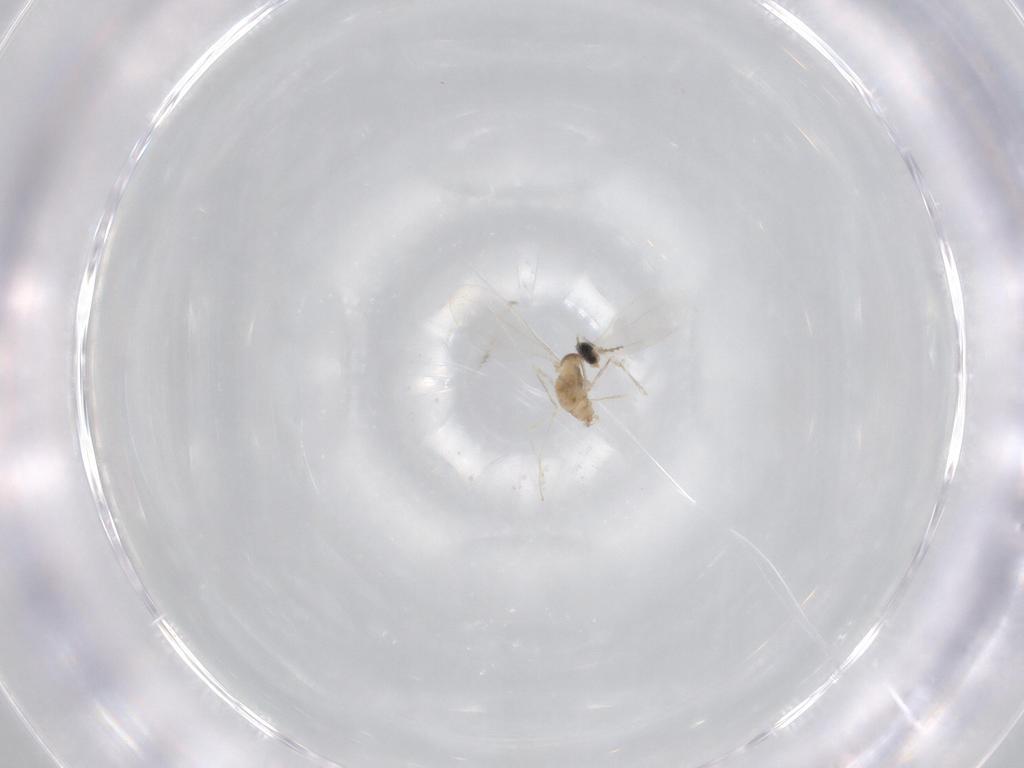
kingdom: Animalia
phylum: Arthropoda
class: Insecta
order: Diptera
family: Cecidomyiidae
